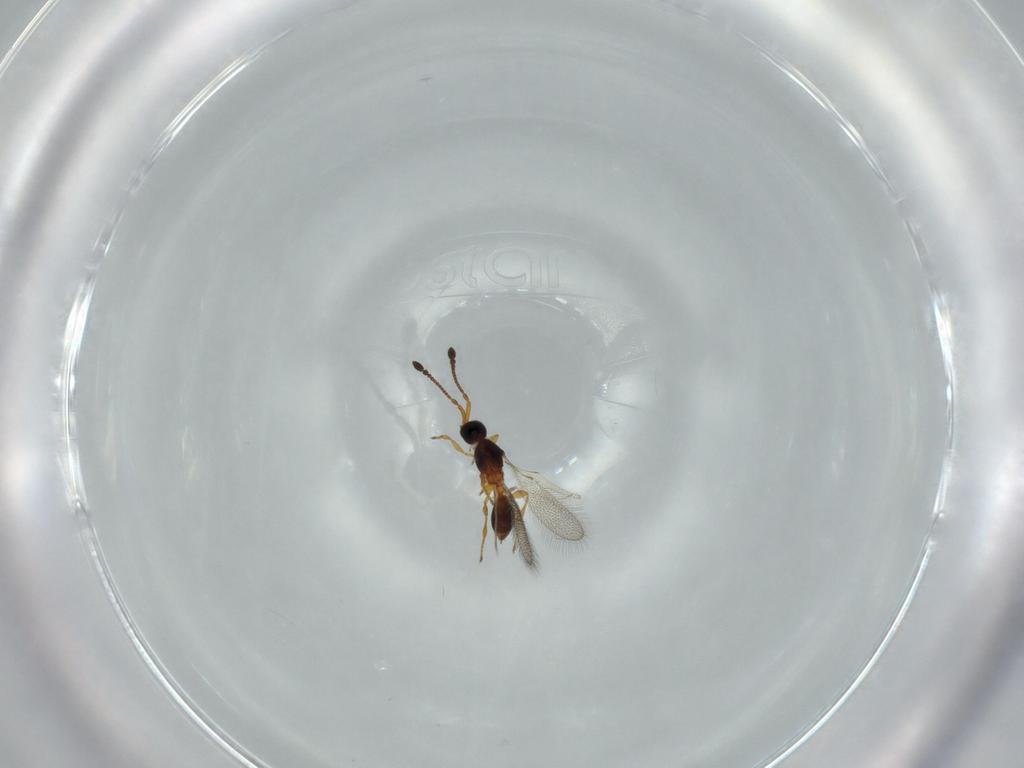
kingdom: Animalia
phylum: Arthropoda
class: Insecta
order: Hymenoptera
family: Diapriidae
